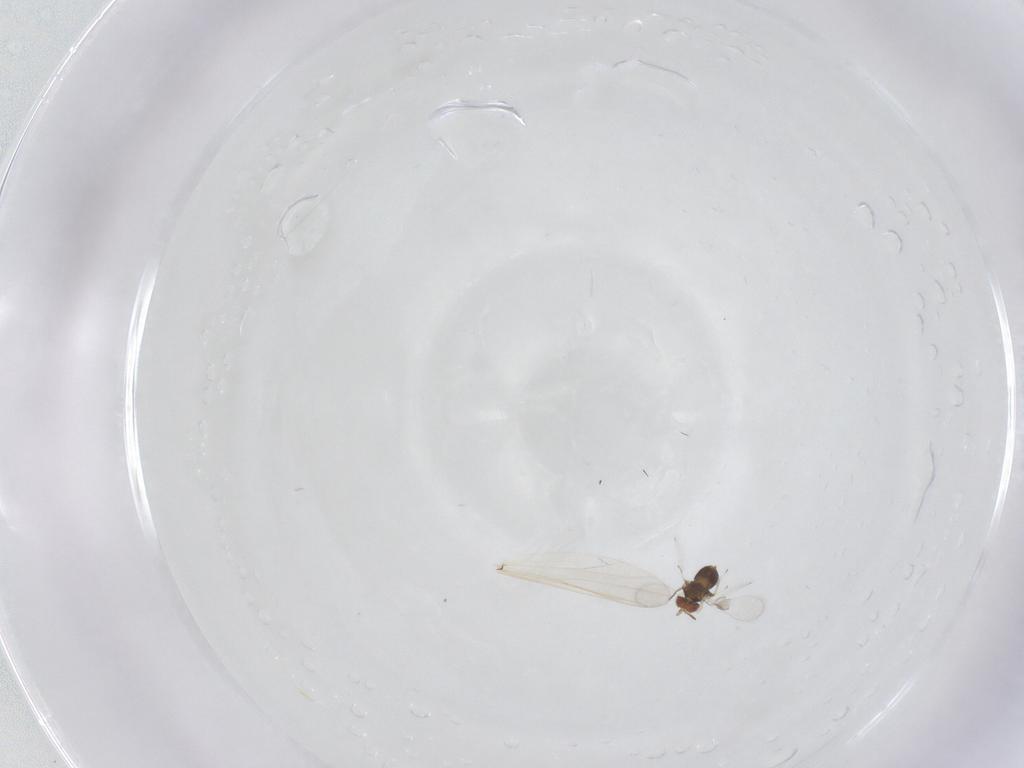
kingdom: Animalia
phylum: Arthropoda
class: Insecta
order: Hymenoptera
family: Trichogrammatidae
